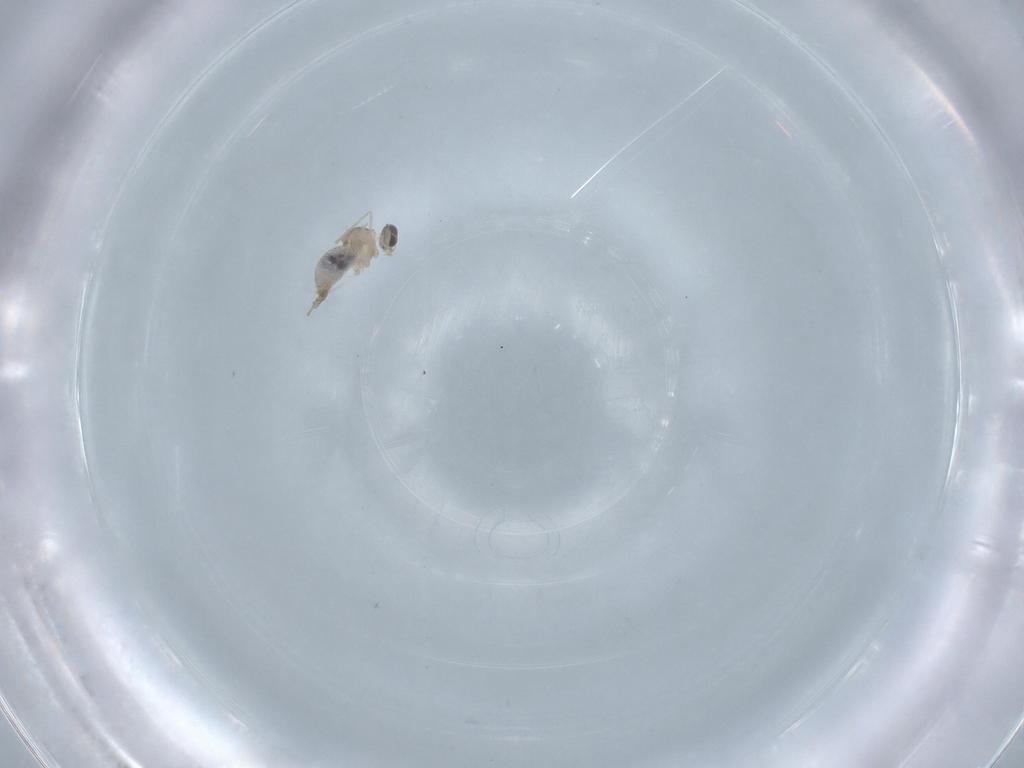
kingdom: Animalia
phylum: Arthropoda
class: Insecta
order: Diptera
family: Cecidomyiidae
